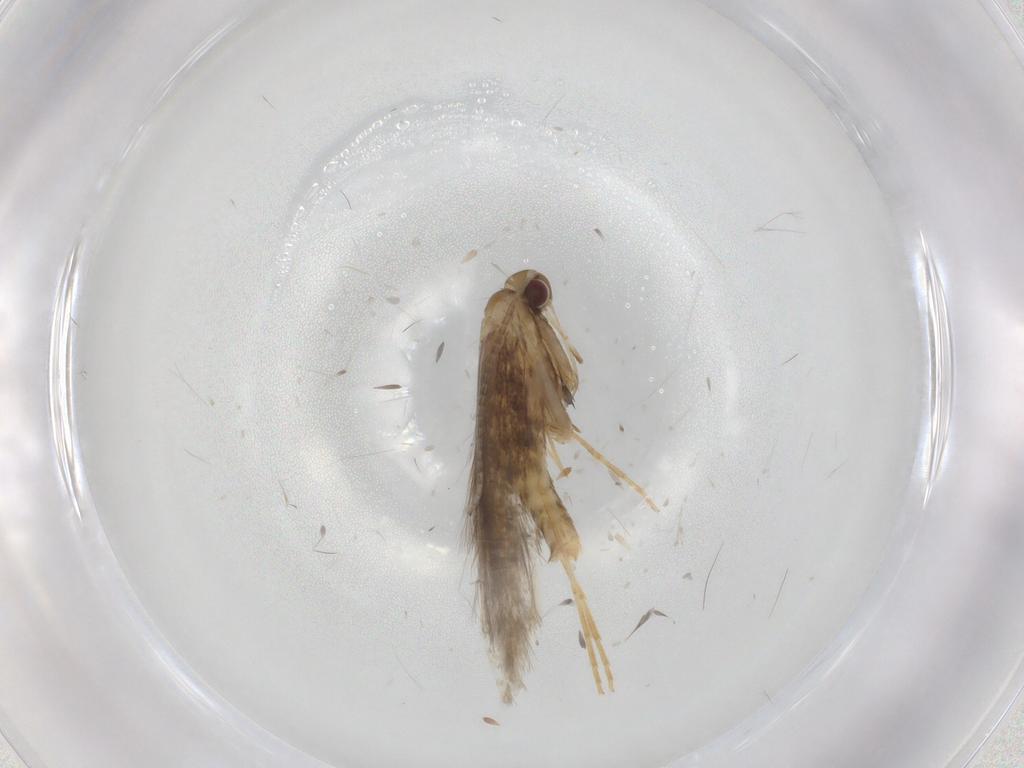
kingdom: Animalia
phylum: Arthropoda
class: Insecta
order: Lepidoptera
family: Erebidae
